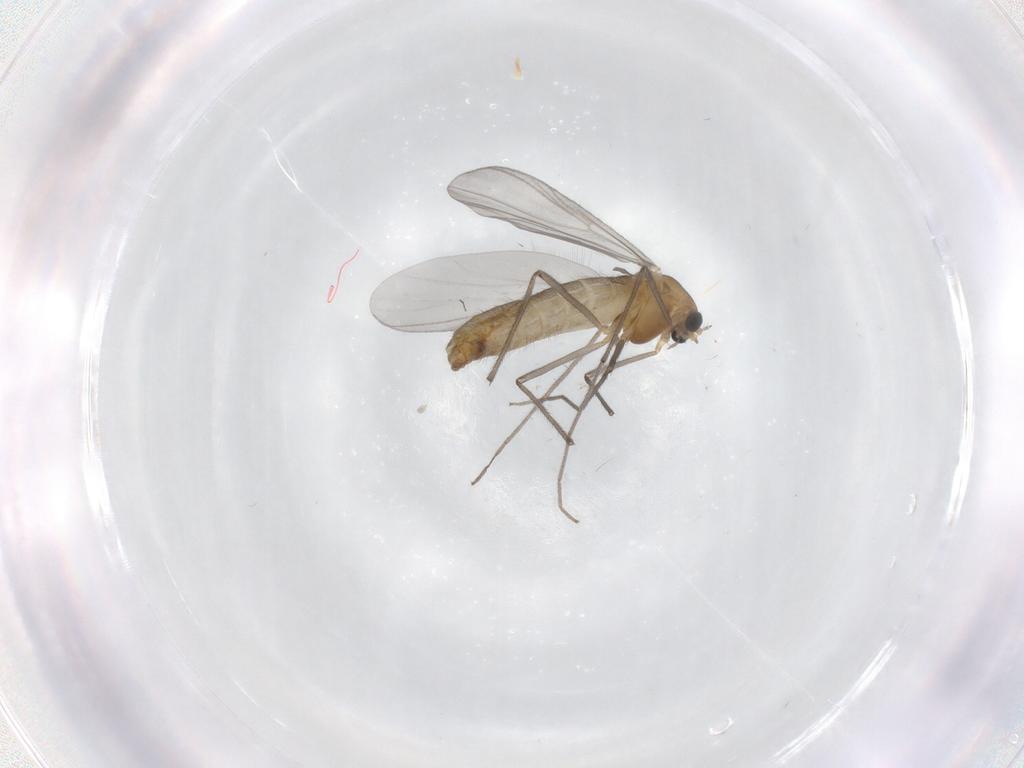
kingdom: Animalia
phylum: Arthropoda
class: Insecta
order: Diptera
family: Chironomidae
